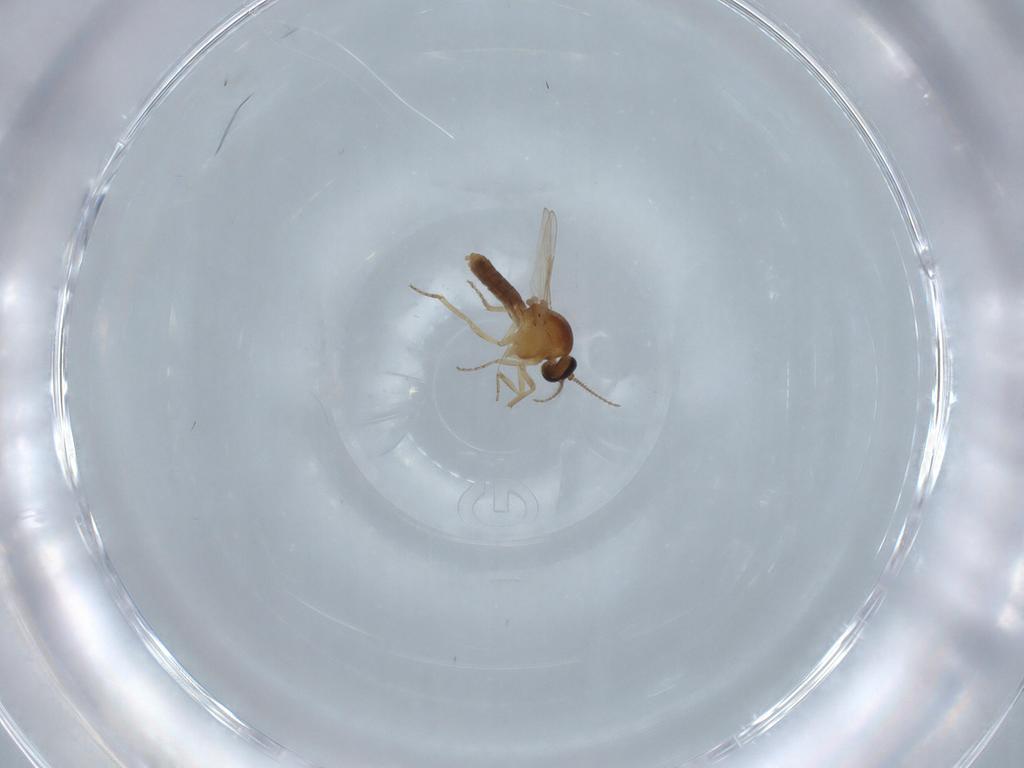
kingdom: Animalia
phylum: Arthropoda
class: Insecta
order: Diptera
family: Ceratopogonidae
